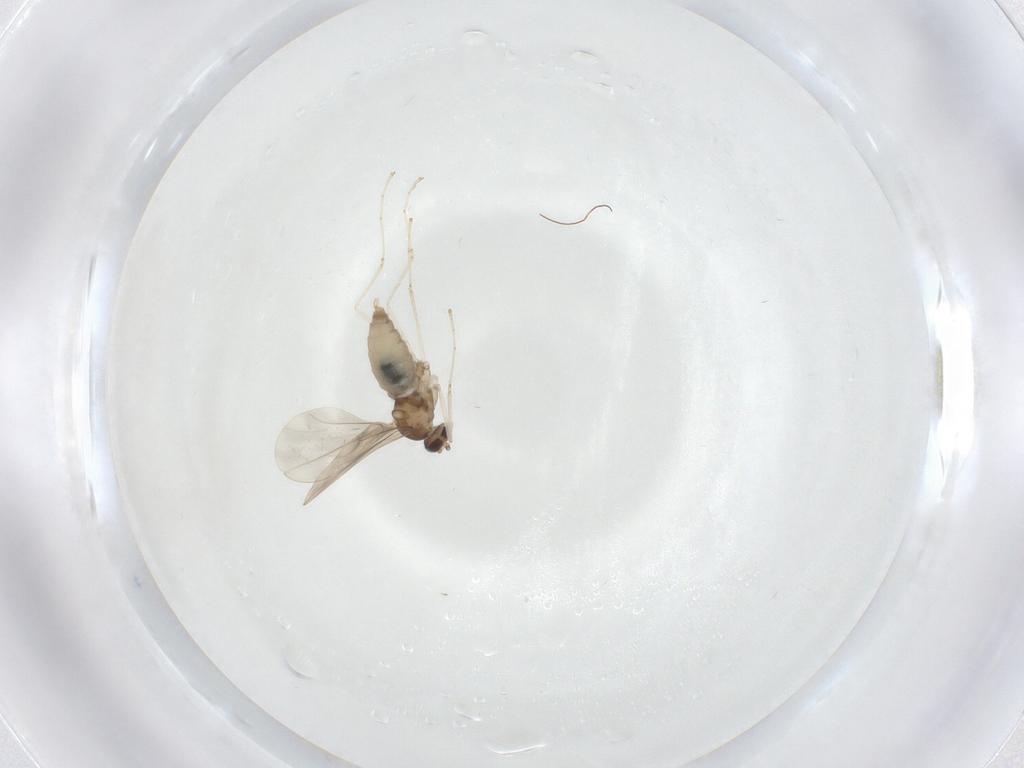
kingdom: Animalia
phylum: Arthropoda
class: Insecta
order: Diptera
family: Cecidomyiidae
